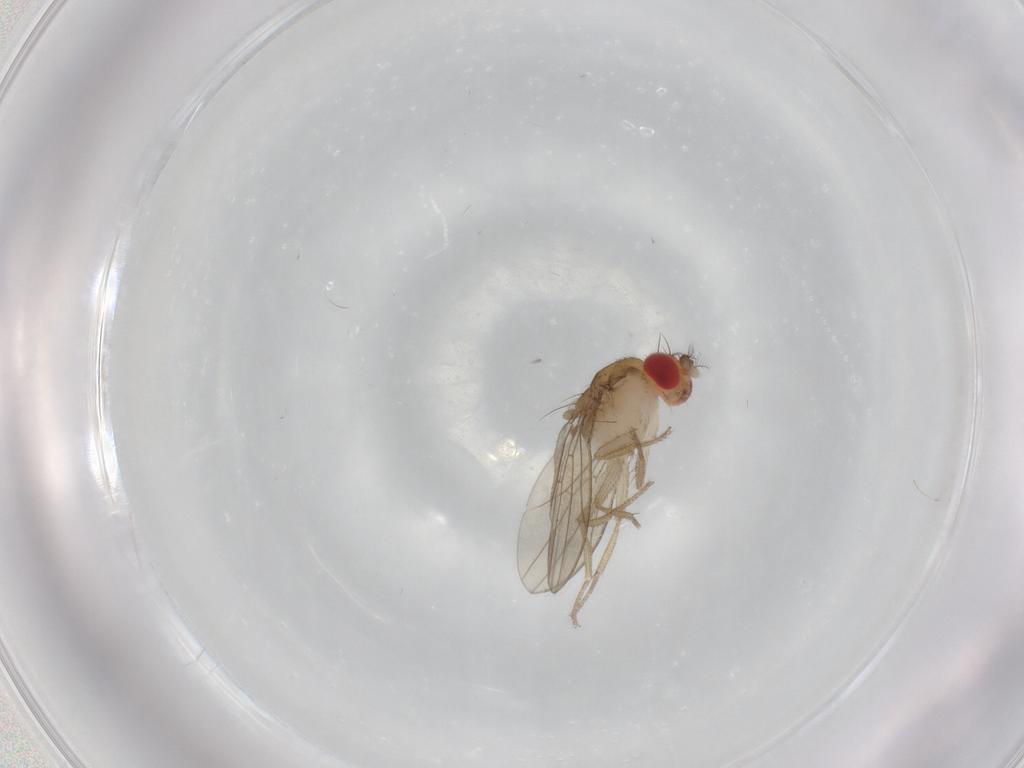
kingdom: Animalia
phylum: Arthropoda
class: Insecta
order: Diptera
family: Drosophilidae
